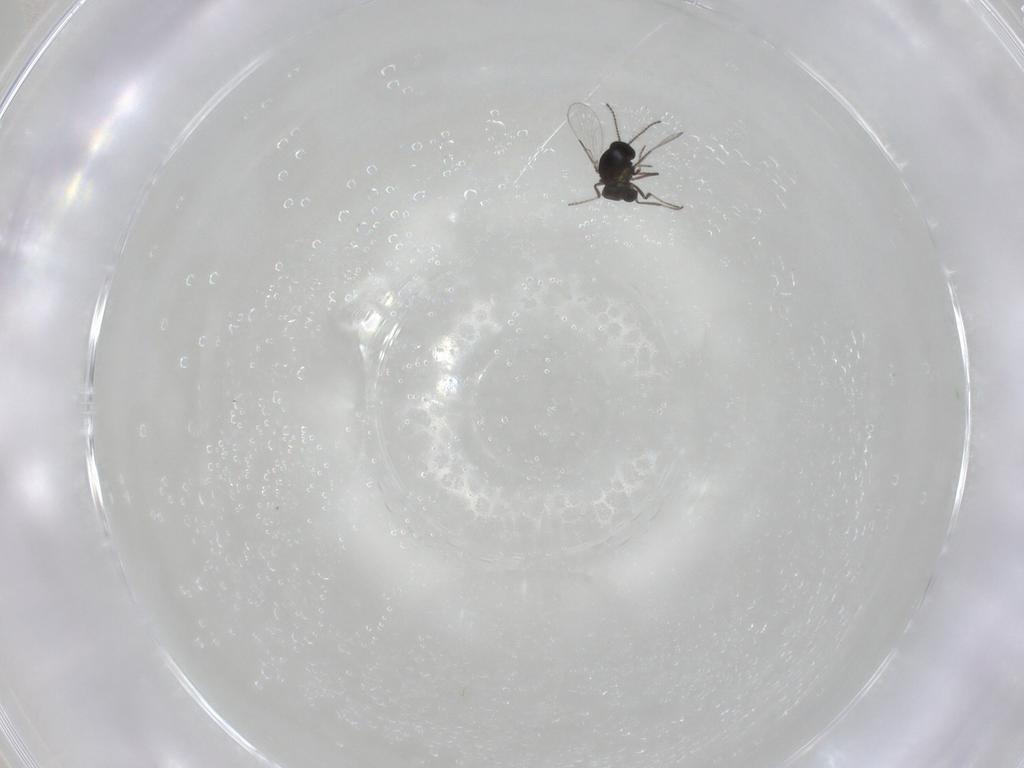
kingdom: Animalia
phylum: Arthropoda
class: Insecta
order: Diptera
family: Ceratopogonidae
